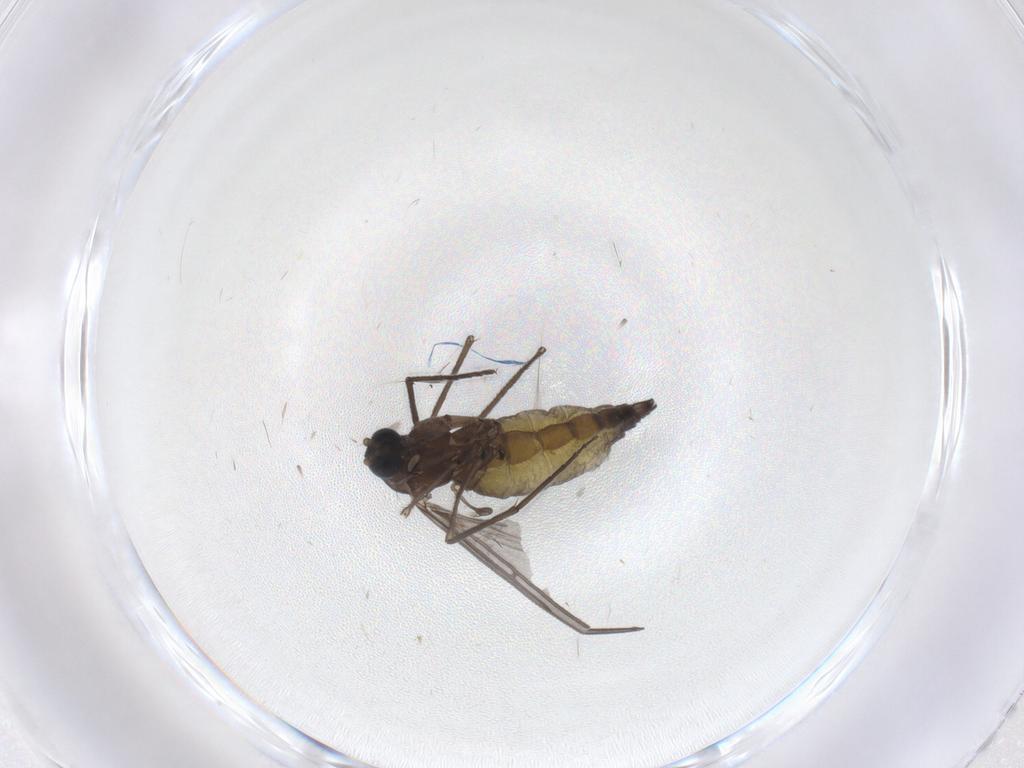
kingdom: Animalia
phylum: Arthropoda
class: Insecta
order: Diptera
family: Sciaridae
